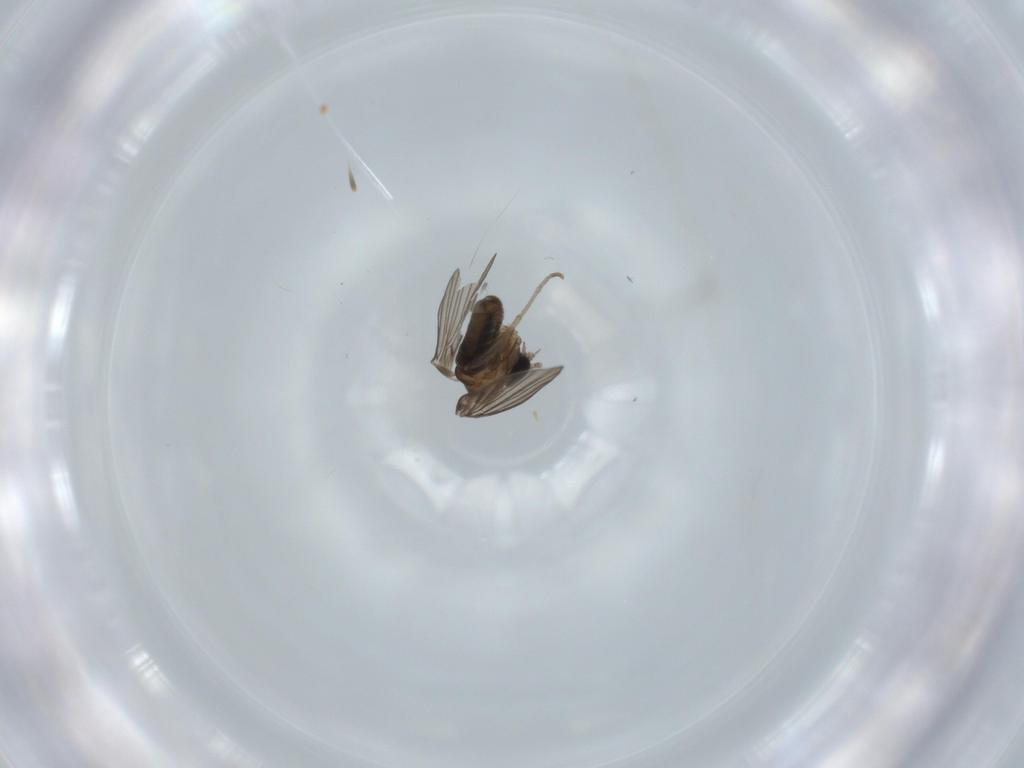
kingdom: Animalia
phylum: Arthropoda
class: Insecta
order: Diptera
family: Psychodidae
